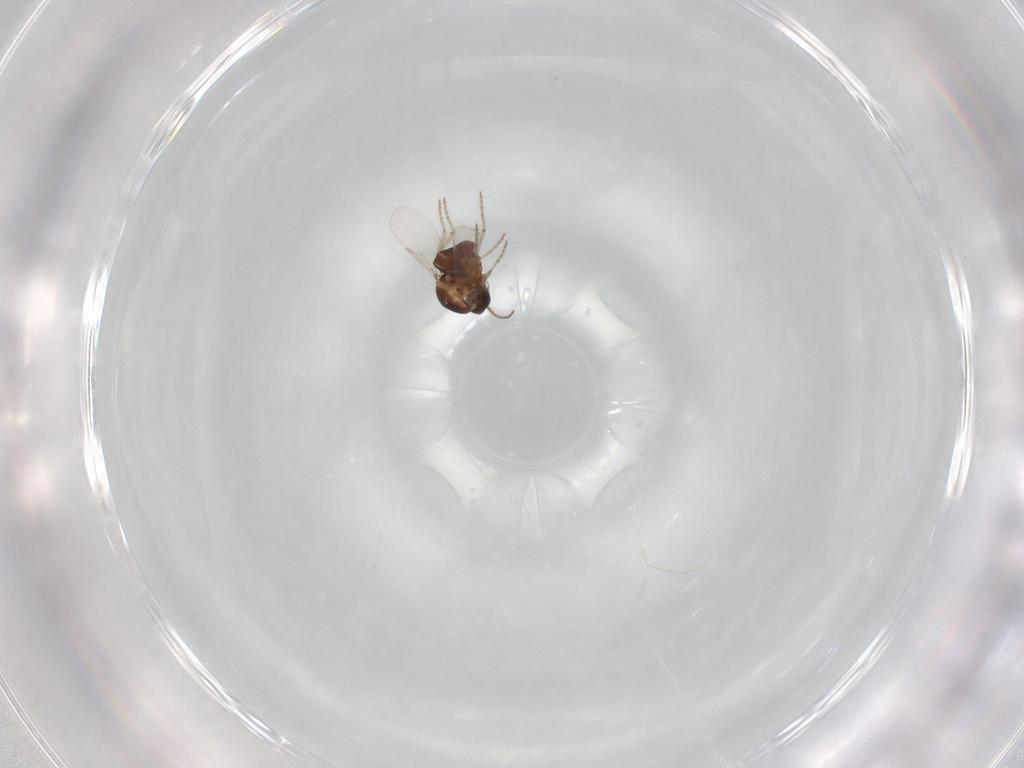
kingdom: Animalia
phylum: Arthropoda
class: Insecta
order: Diptera
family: Ceratopogonidae
